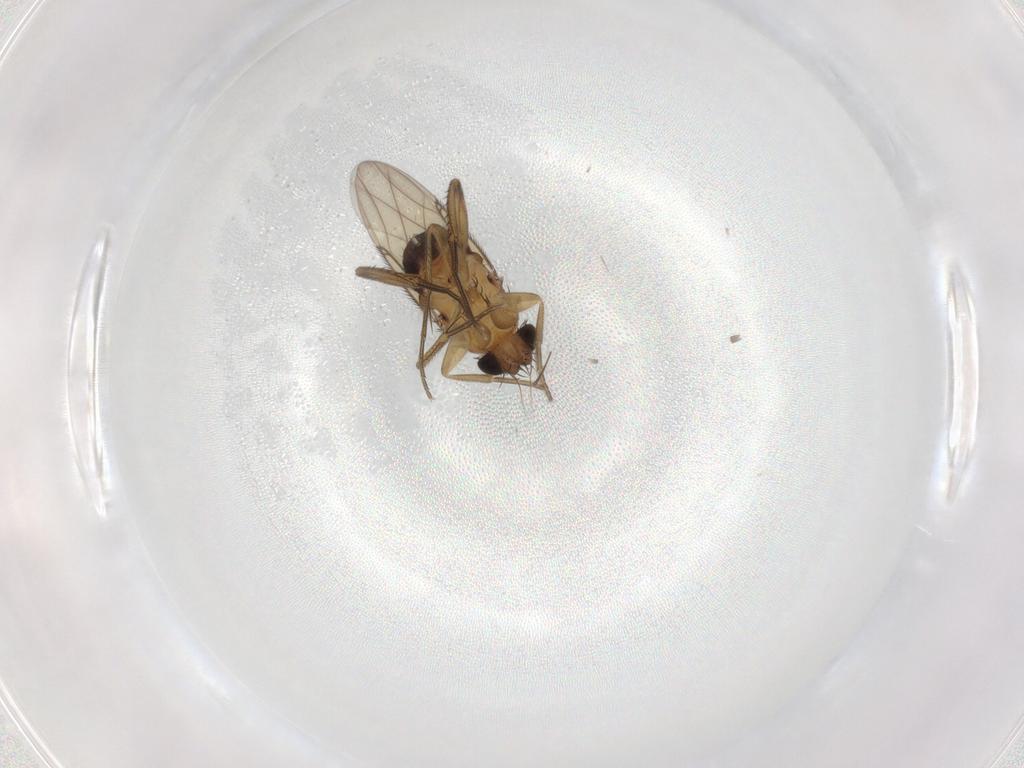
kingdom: Animalia
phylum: Arthropoda
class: Insecta
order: Diptera
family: Phoridae
